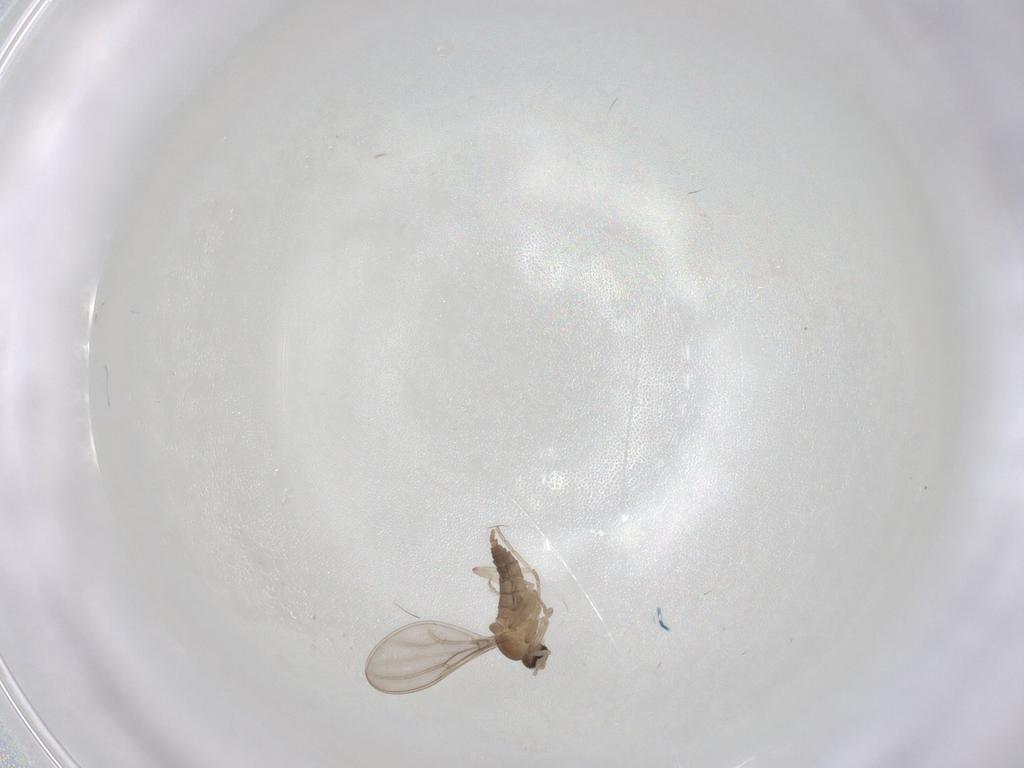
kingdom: Animalia
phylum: Arthropoda
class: Insecta
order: Diptera
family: Cecidomyiidae
